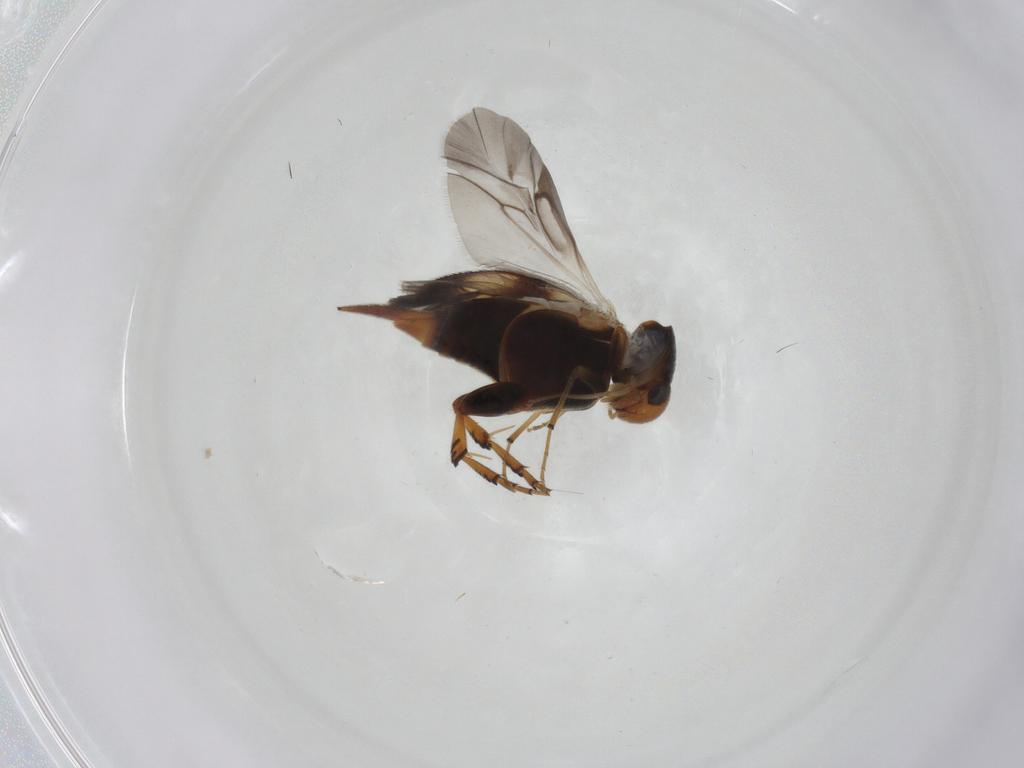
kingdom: Animalia
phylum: Arthropoda
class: Insecta
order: Coleoptera
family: Mordellidae
